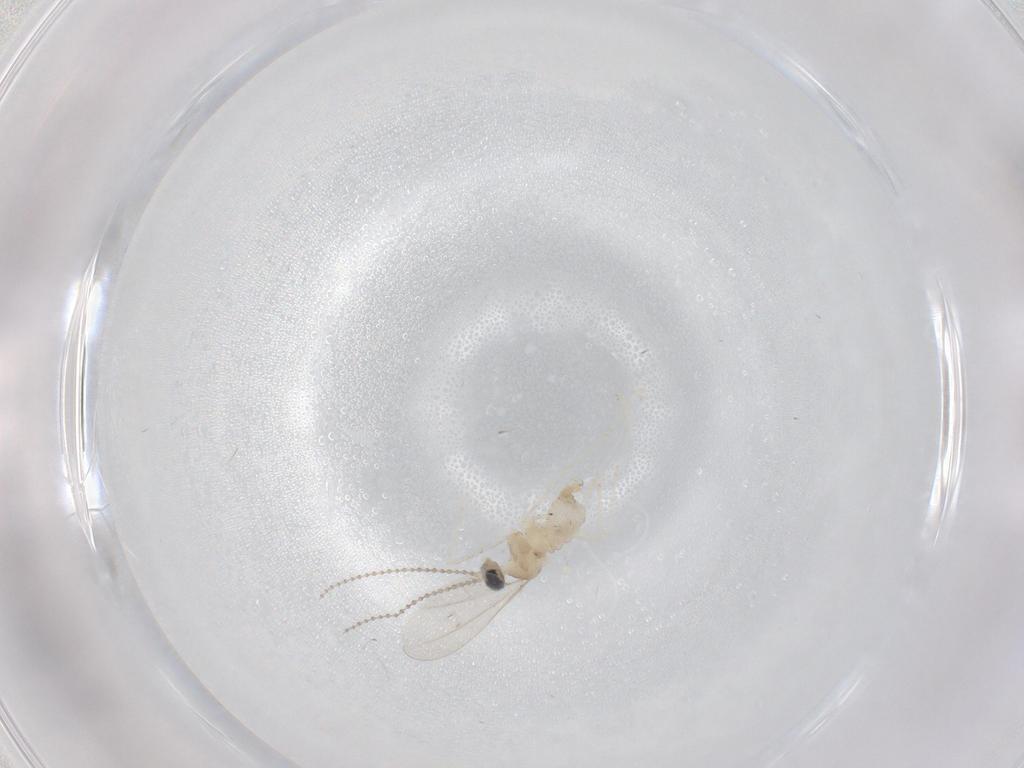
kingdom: Animalia
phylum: Arthropoda
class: Insecta
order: Diptera
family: Cecidomyiidae
